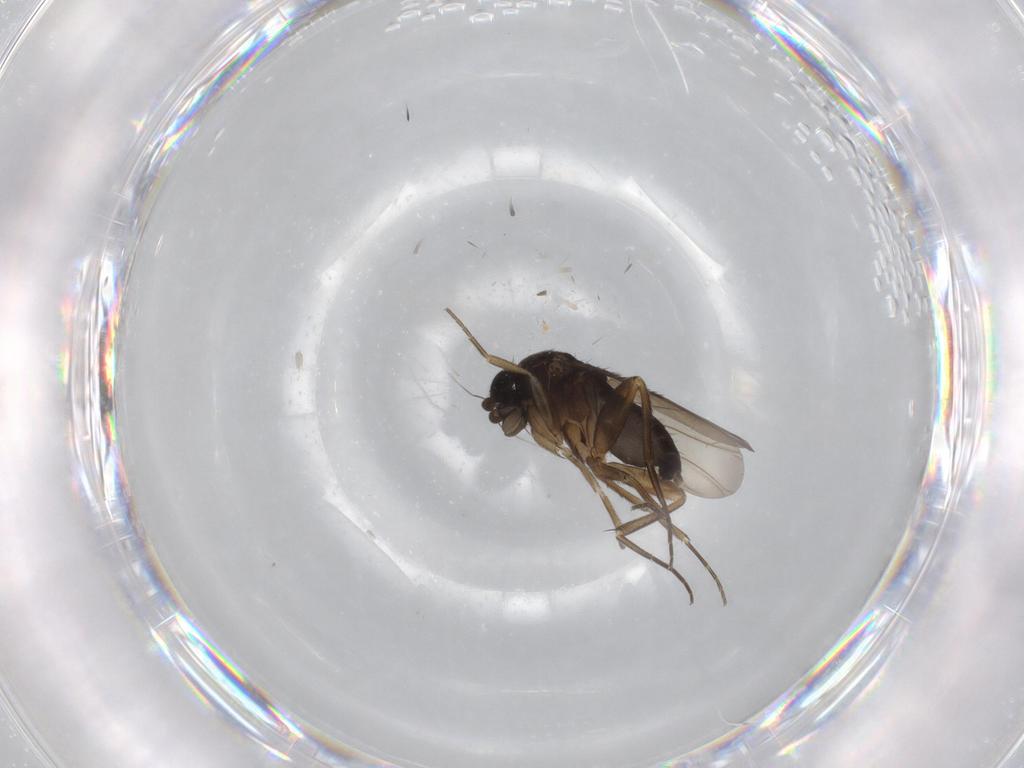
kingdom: Animalia
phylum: Arthropoda
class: Insecta
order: Diptera
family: Phoridae
